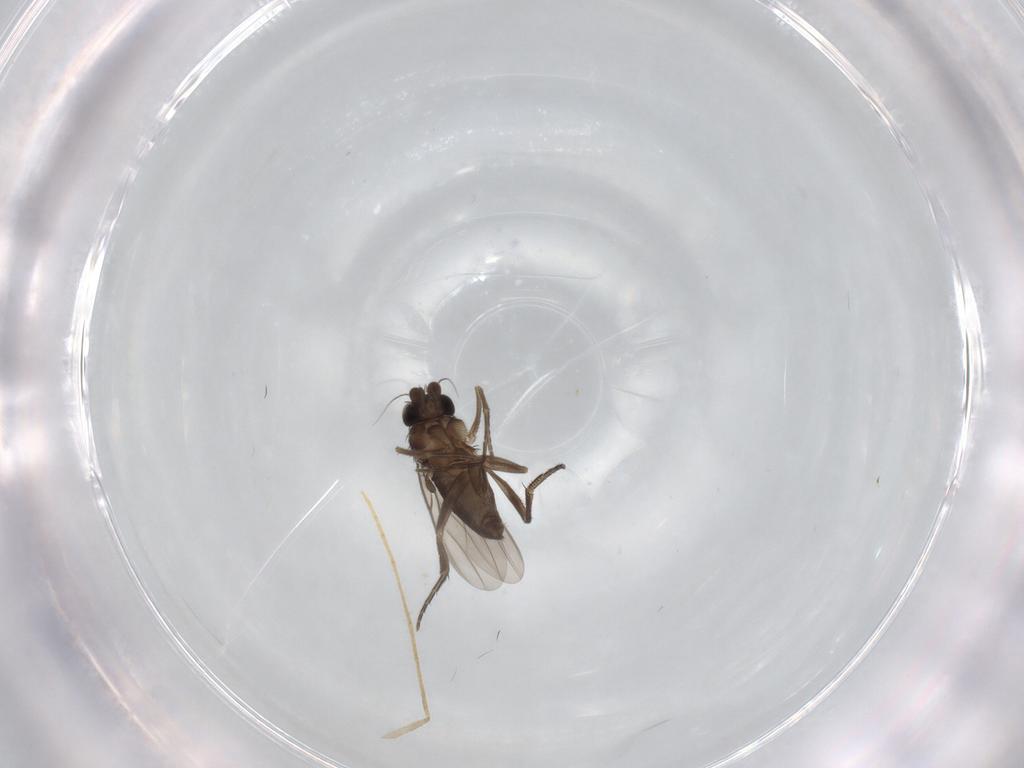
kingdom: Animalia
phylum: Arthropoda
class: Insecta
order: Diptera
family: Phoridae
